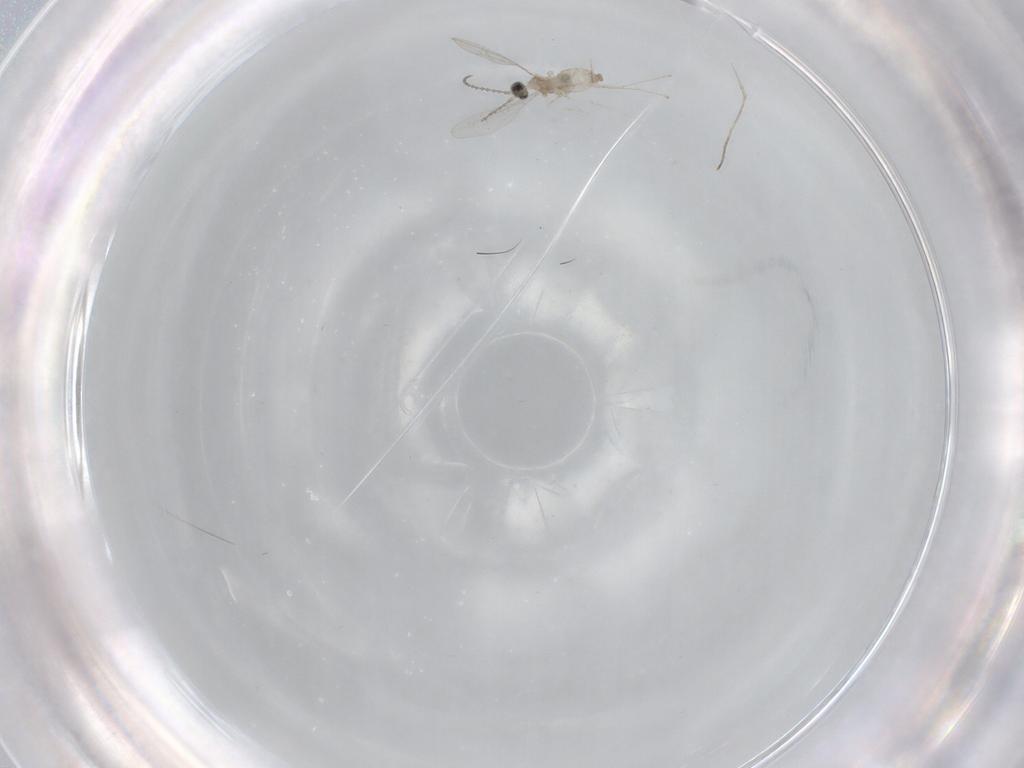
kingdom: Animalia
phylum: Arthropoda
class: Insecta
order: Diptera
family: Cecidomyiidae
